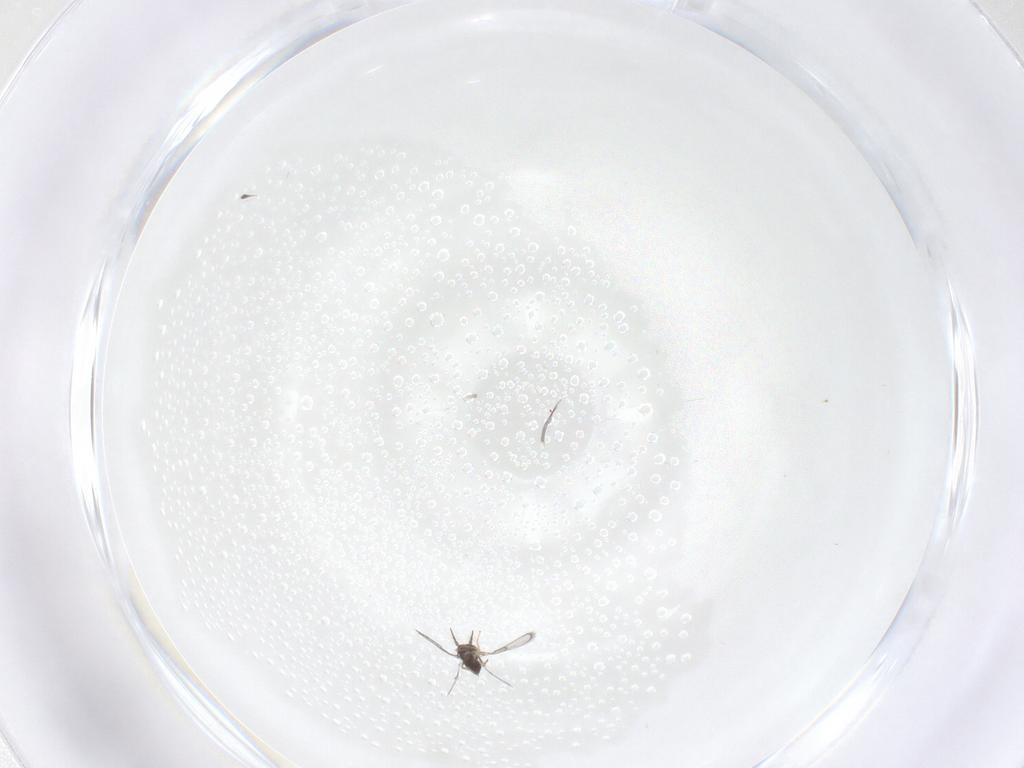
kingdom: Animalia
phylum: Arthropoda
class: Insecta
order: Hymenoptera
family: Trichogrammatidae
